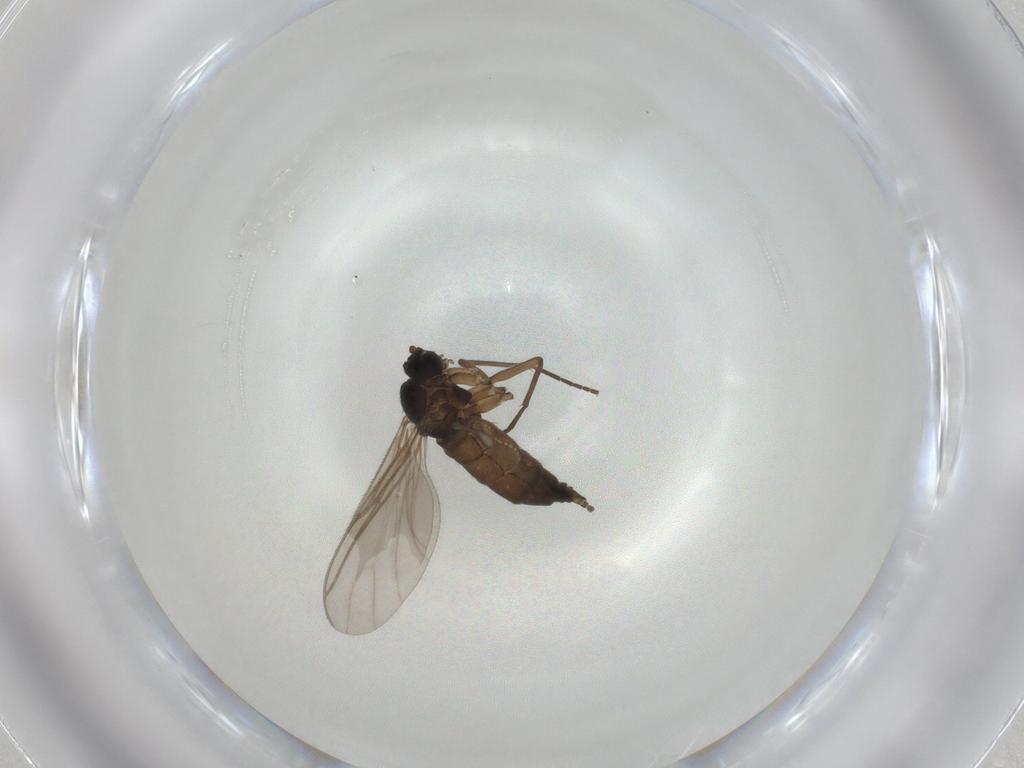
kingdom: Animalia
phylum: Arthropoda
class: Insecta
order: Diptera
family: Sciaridae
